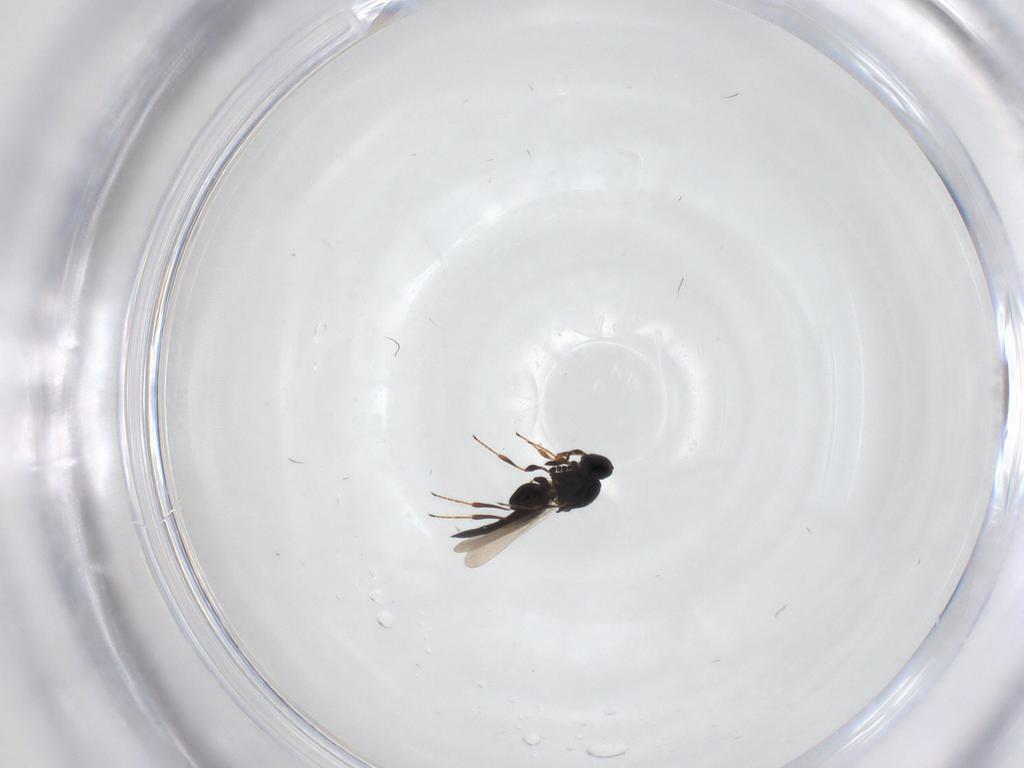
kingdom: Animalia
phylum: Arthropoda
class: Insecta
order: Hymenoptera
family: Platygastridae
